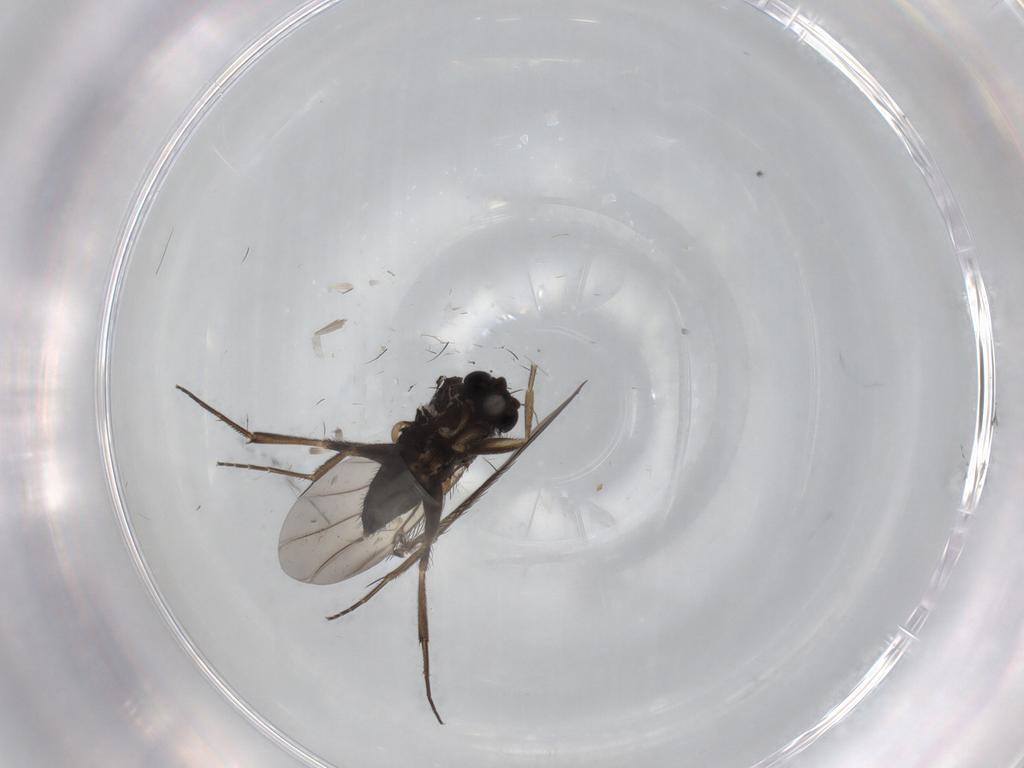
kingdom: Animalia
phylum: Arthropoda
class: Insecta
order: Diptera
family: Phoridae
